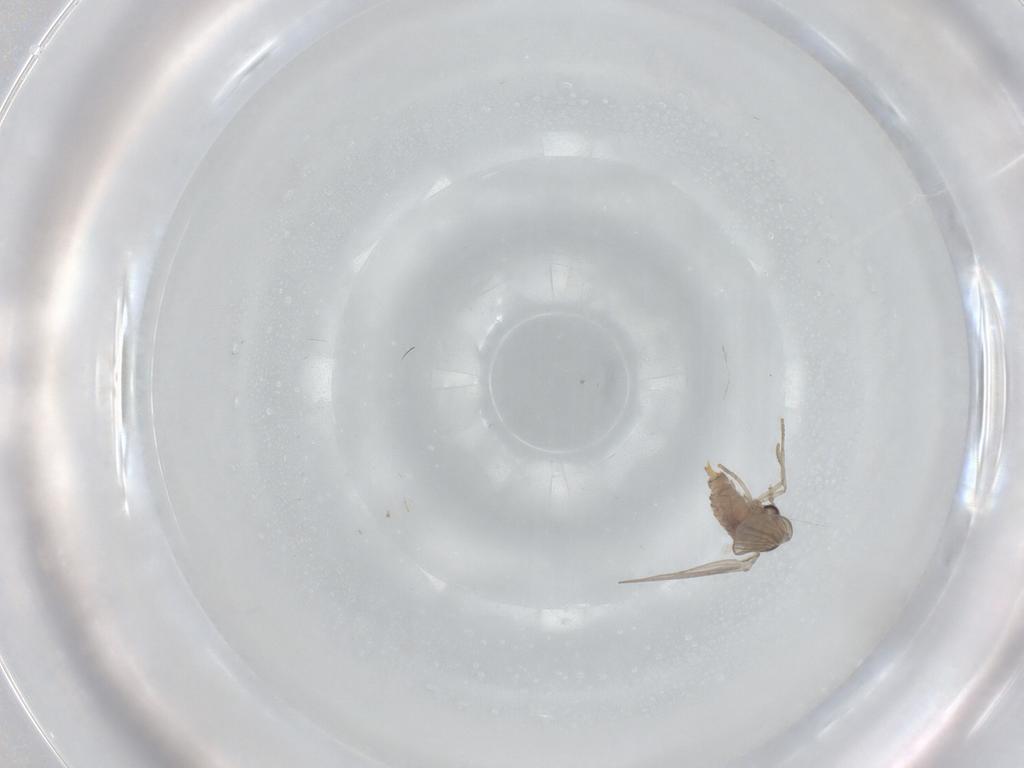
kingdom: Animalia
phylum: Arthropoda
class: Insecta
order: Diptera
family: Psychodidae
